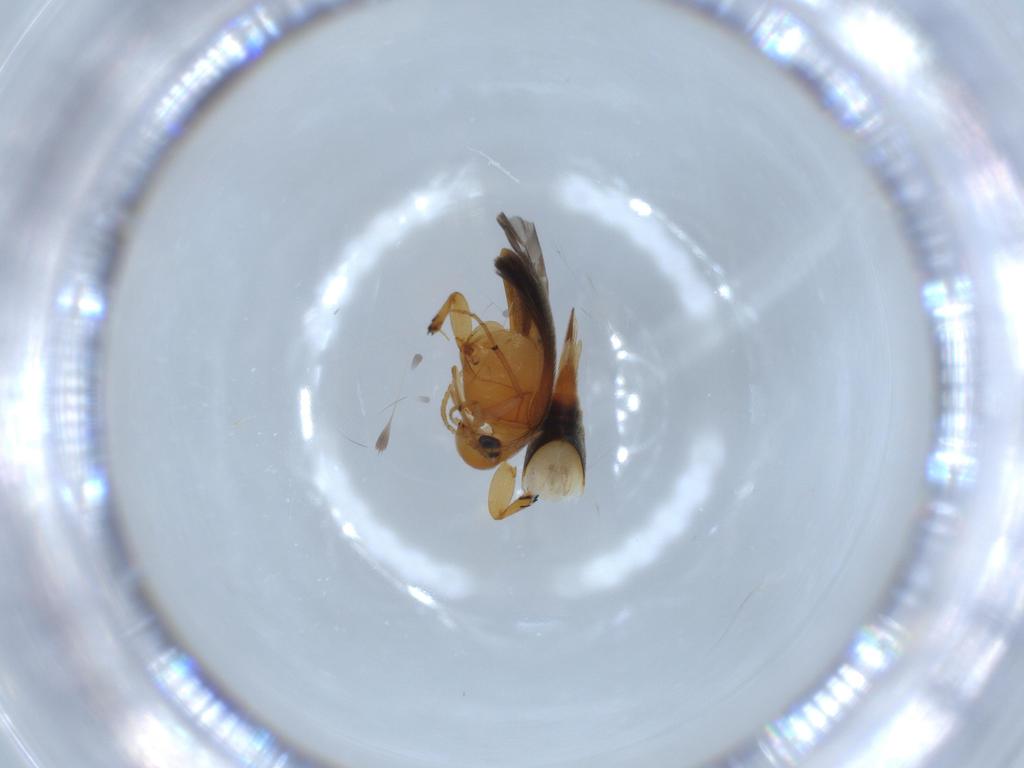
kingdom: Animalia
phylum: Arthropoda
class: Insecta
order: Coleoptera
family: Mordellidae
